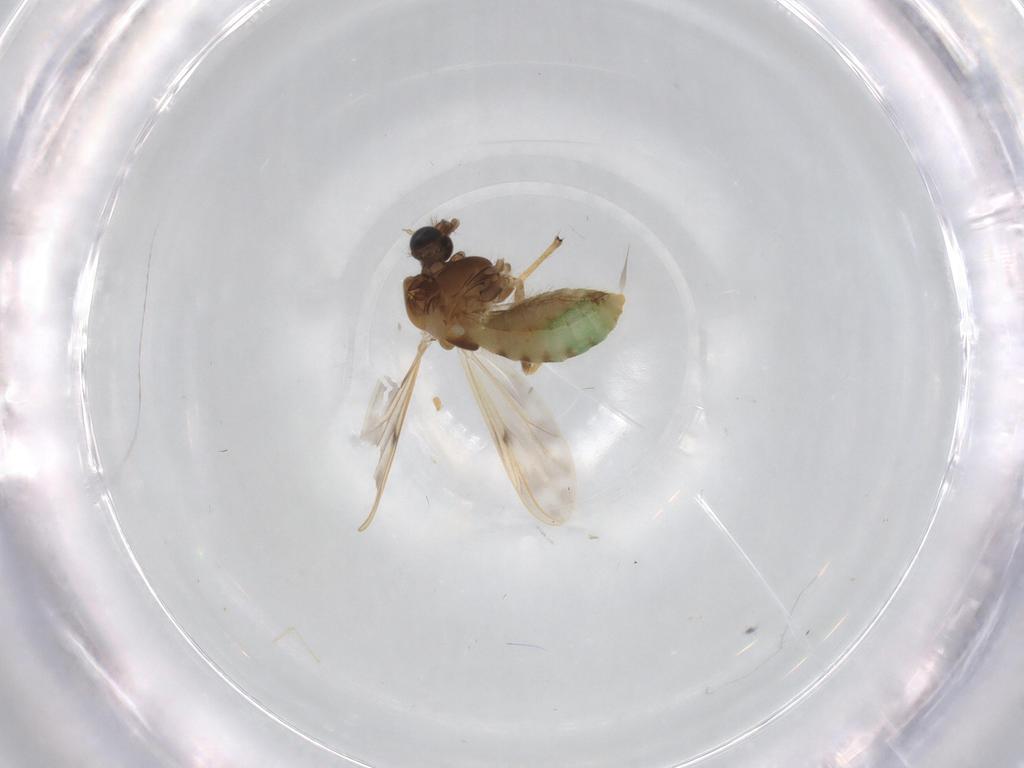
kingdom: Animalia
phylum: Arthropoda
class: Insecta
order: Diptera
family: Chironomidae
